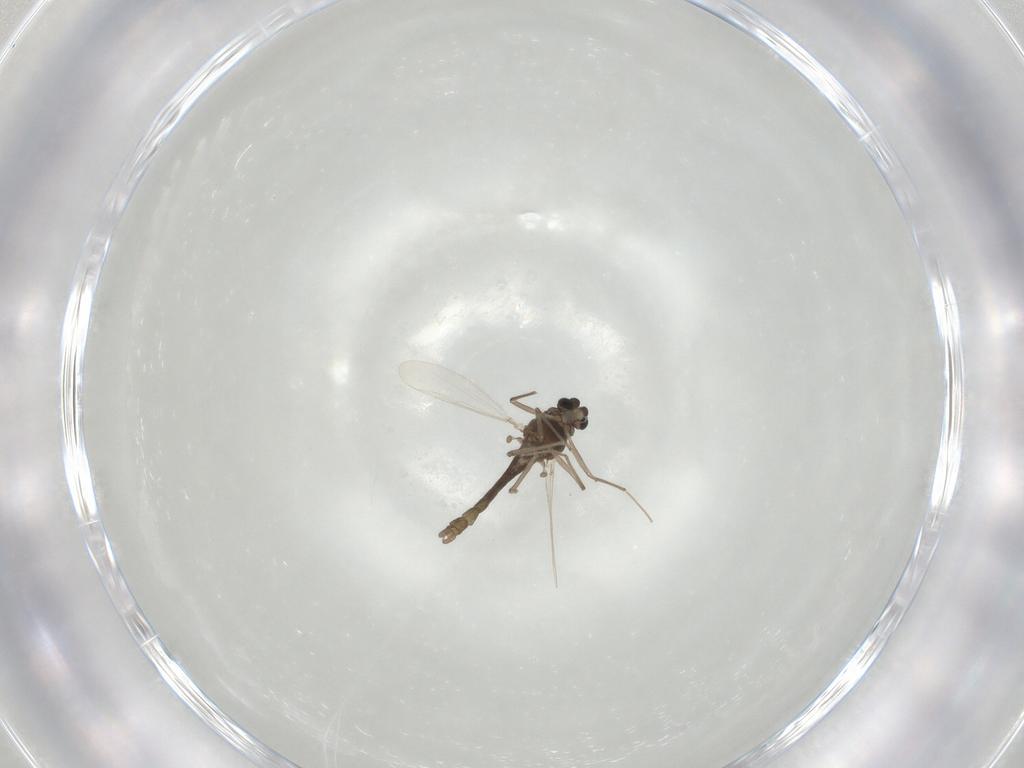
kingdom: Animalia
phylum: Arthropoda
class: Insecta
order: Diptera
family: Chironomidae
